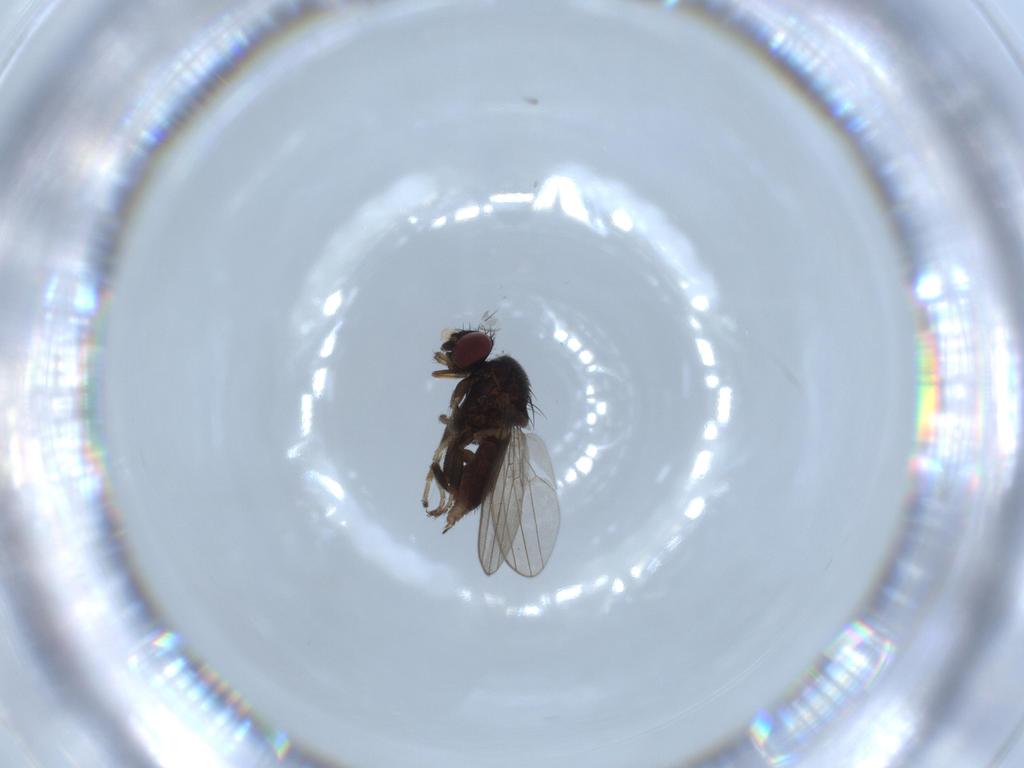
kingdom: Animalia
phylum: Arthropoda
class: Insecta
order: Diptera
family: Milichiidae
